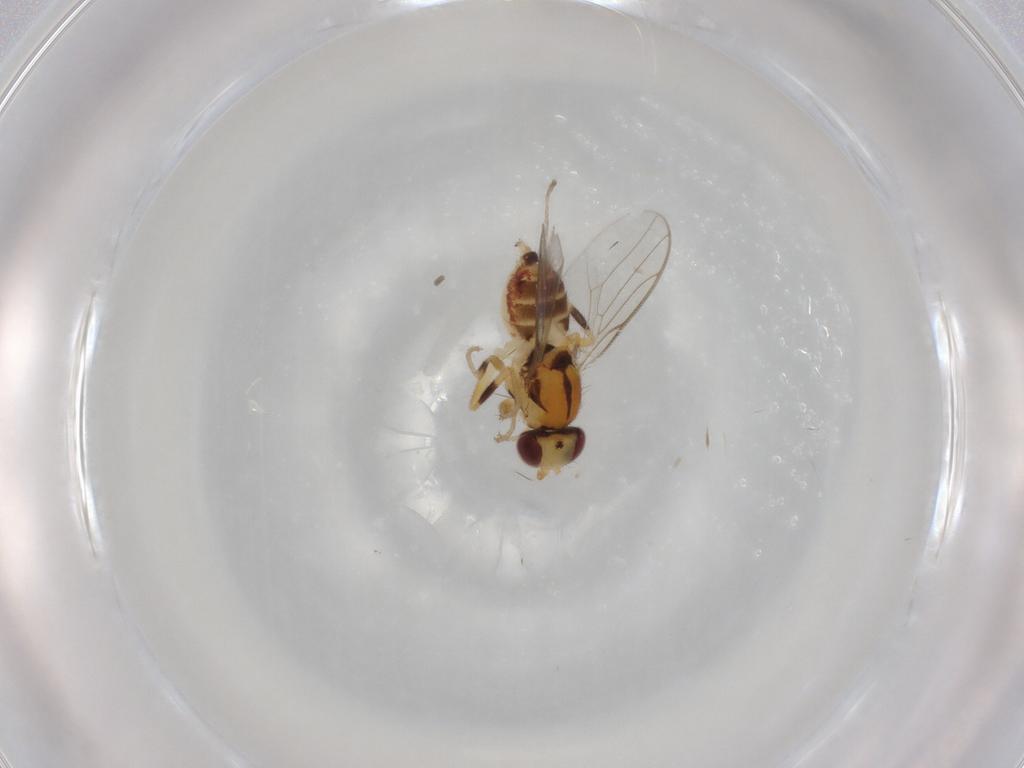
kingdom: Animalia
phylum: Arthropoda
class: Insecta
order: Diptera
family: Chloropidae
